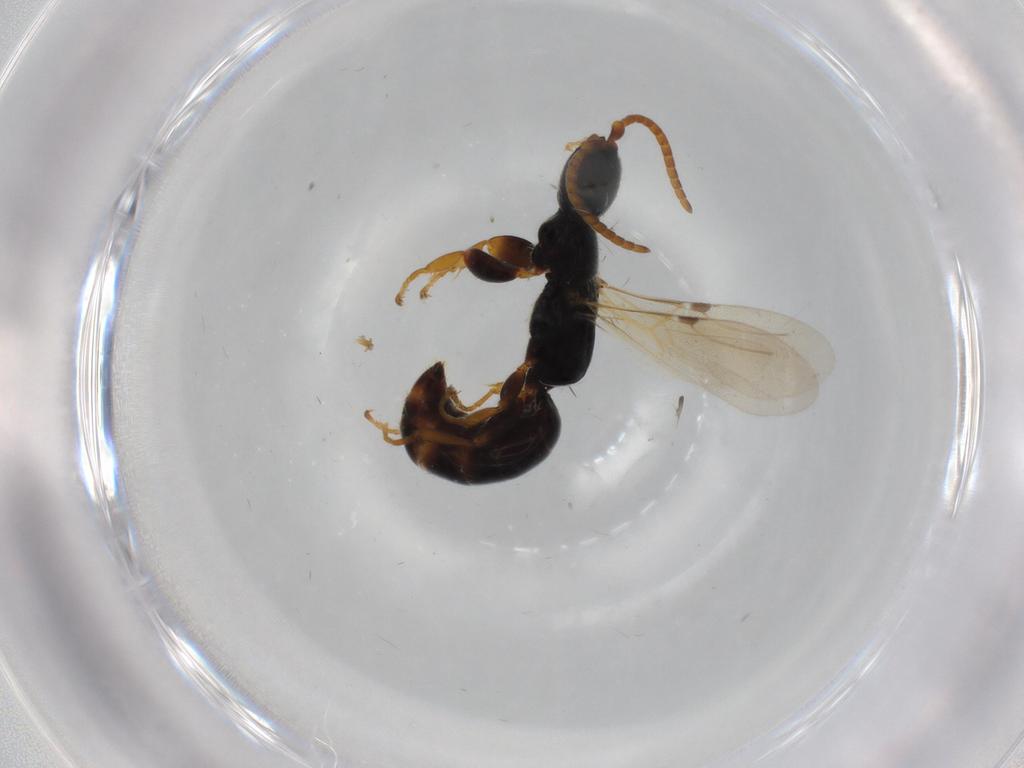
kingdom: Animalia
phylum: Arthropoda
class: Insecta
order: Hymenoptera
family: Bethylidae
